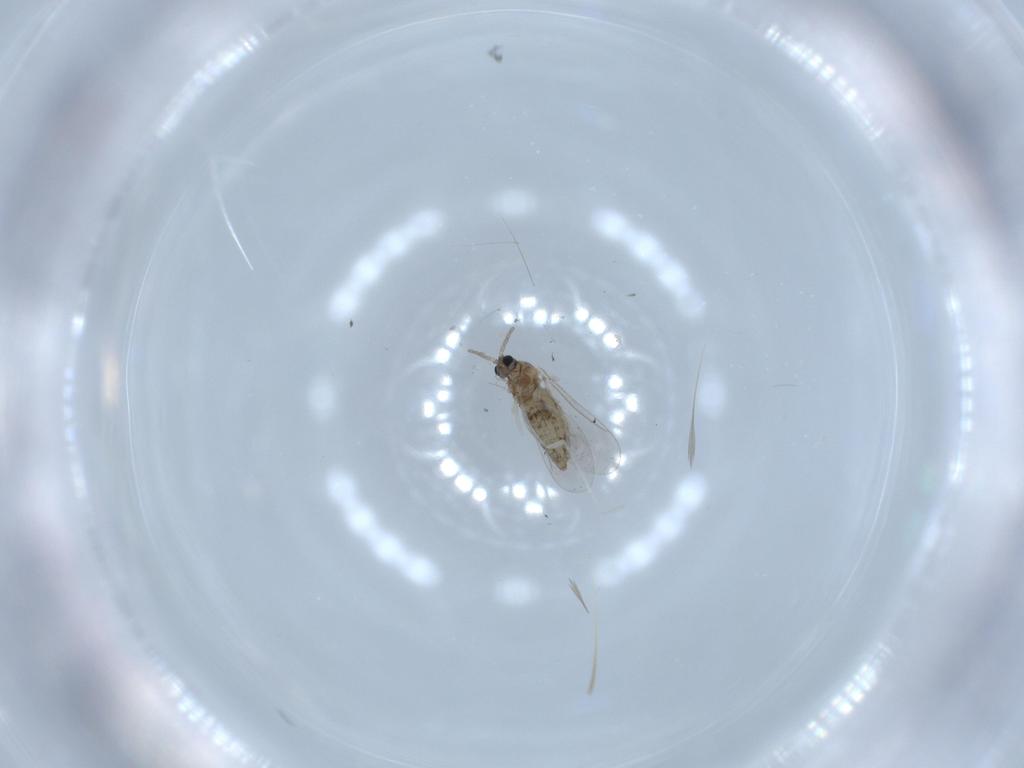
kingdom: Animalia
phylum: Arthropoda
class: Insecta
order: Diptera
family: Cecidomyiidae
